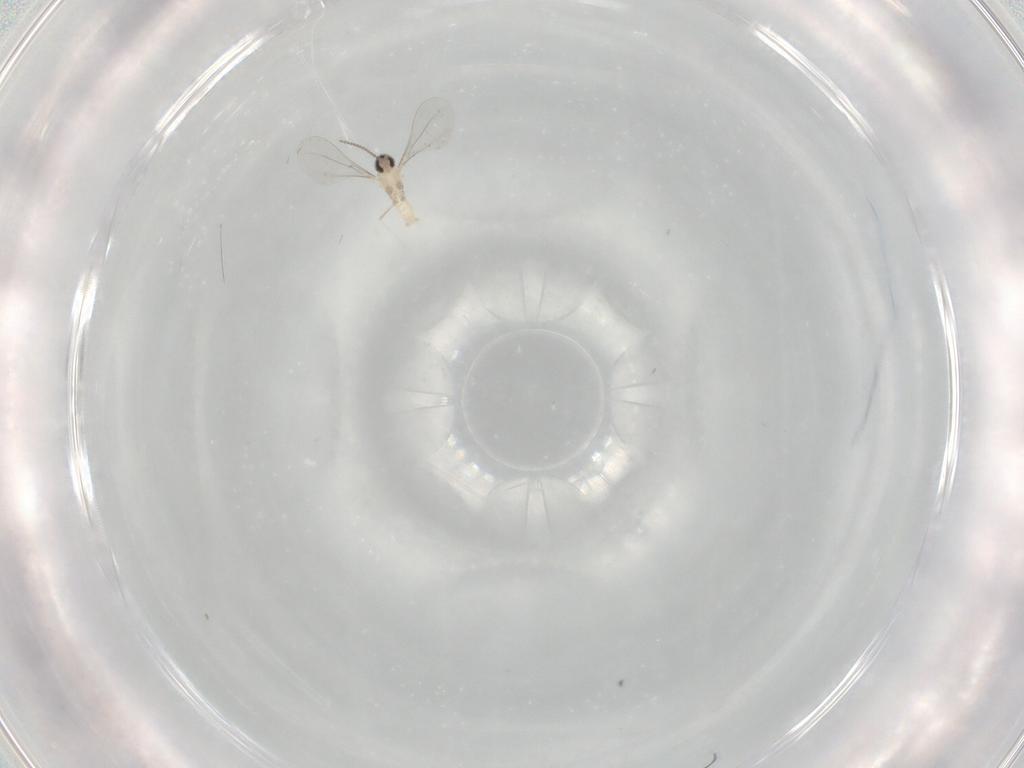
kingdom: Animalia
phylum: Arthropoda
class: Insecta
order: Diptera
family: Cecidomyiidae
